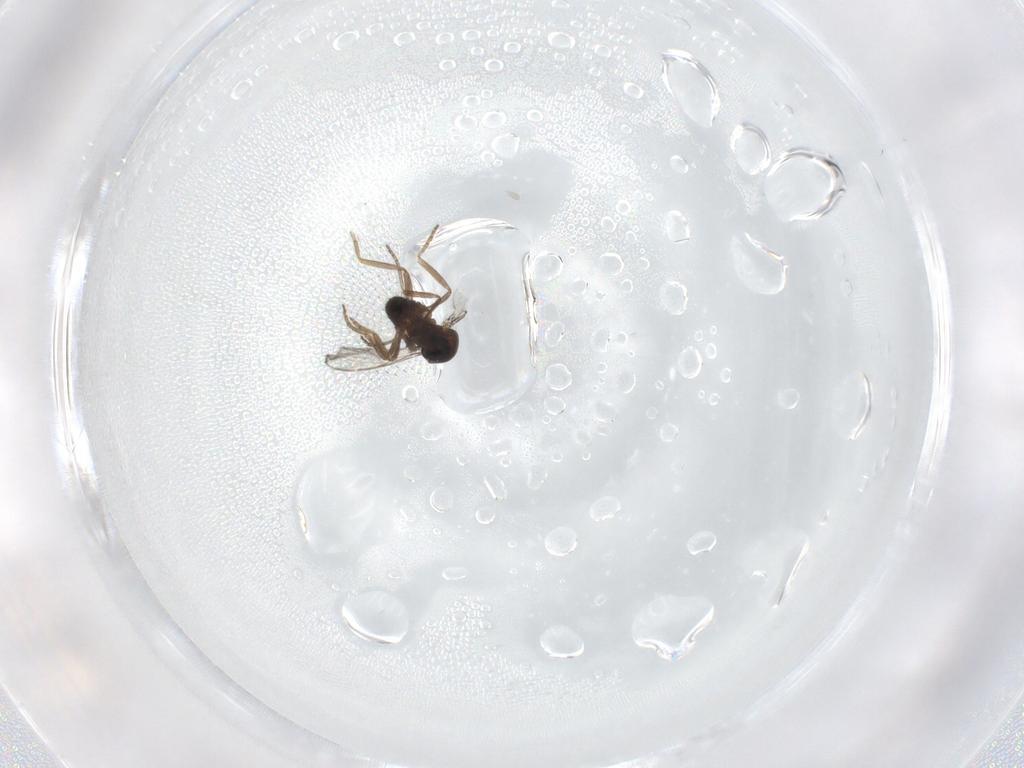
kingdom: Animalia
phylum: Arthropoda
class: Insecta
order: Diptera
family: Ceratopogonidae
